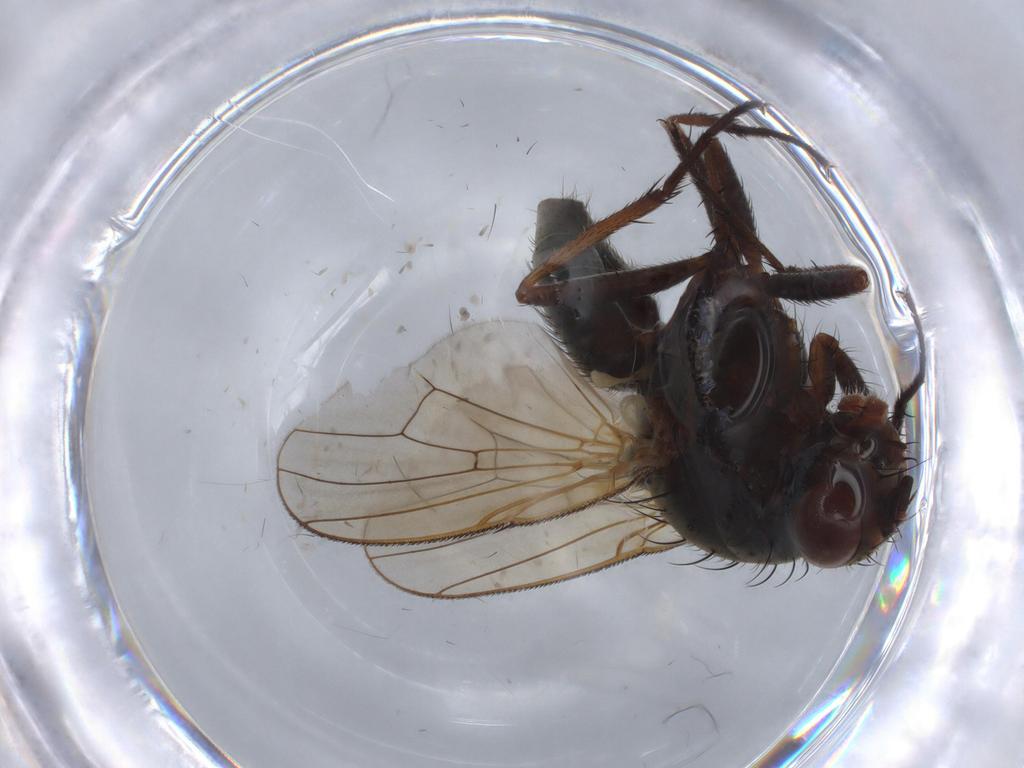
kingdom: Animalia
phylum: Arthropoda
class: Insecta
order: Diptera
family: Anthomyiidae
